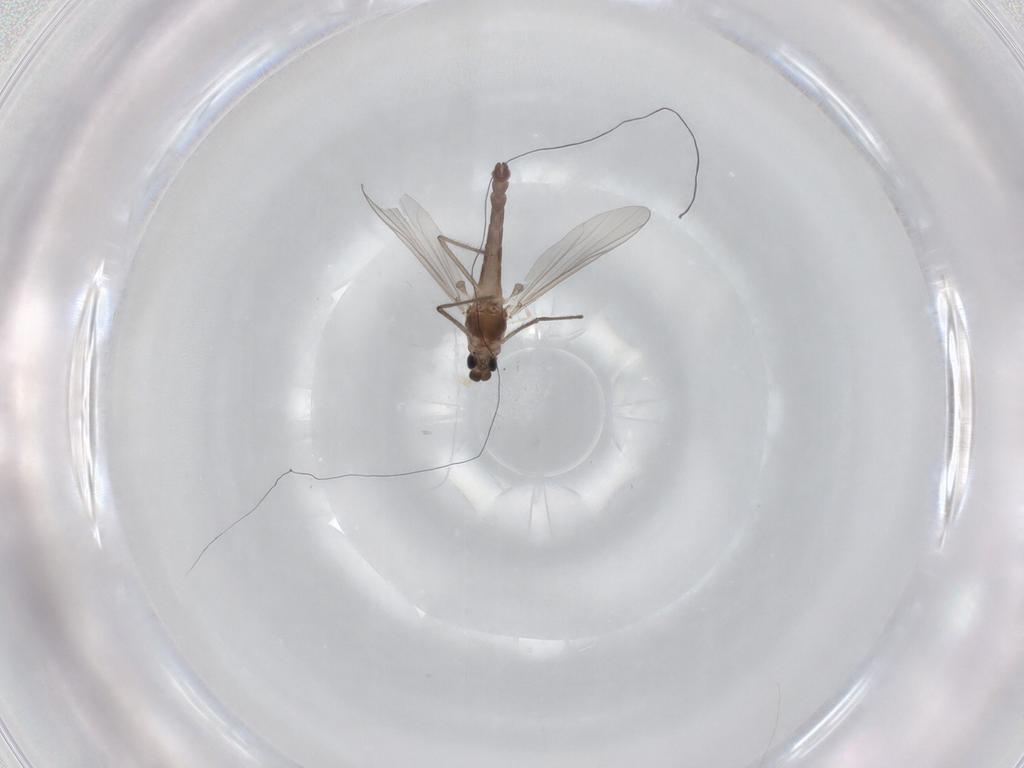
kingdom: Animalia
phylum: Arthropoda
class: Insecta
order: Diptera
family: Chironomidae
